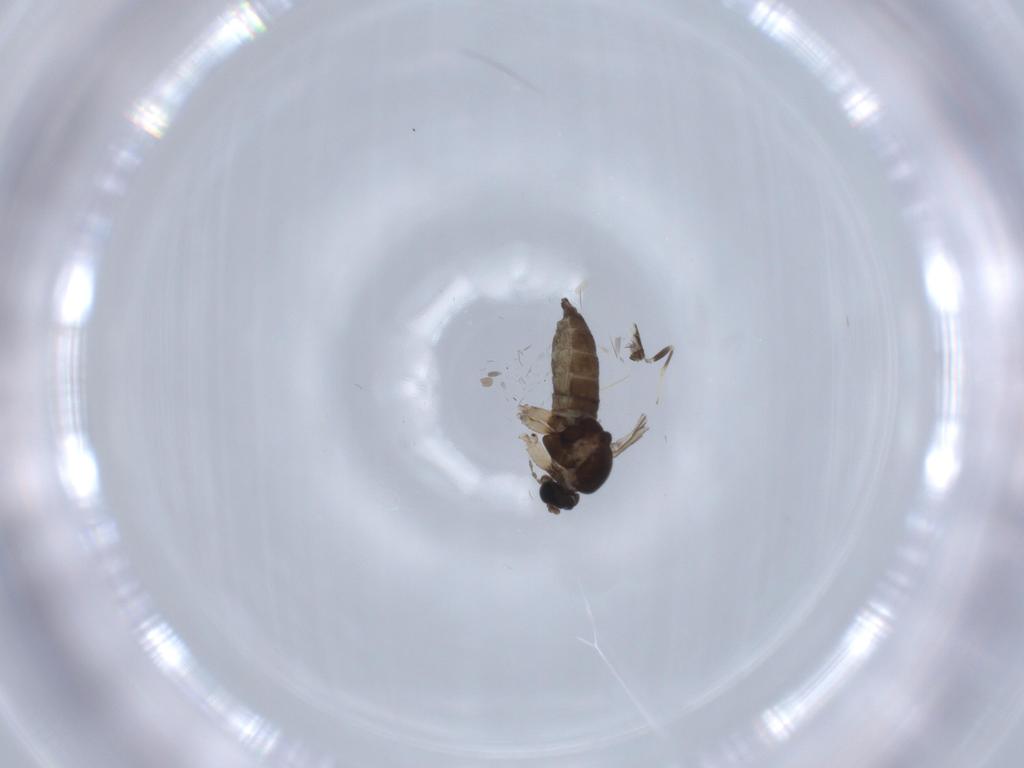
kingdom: Animalia
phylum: Arthropoda
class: Insecta
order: Diptera
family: Sciaridae
